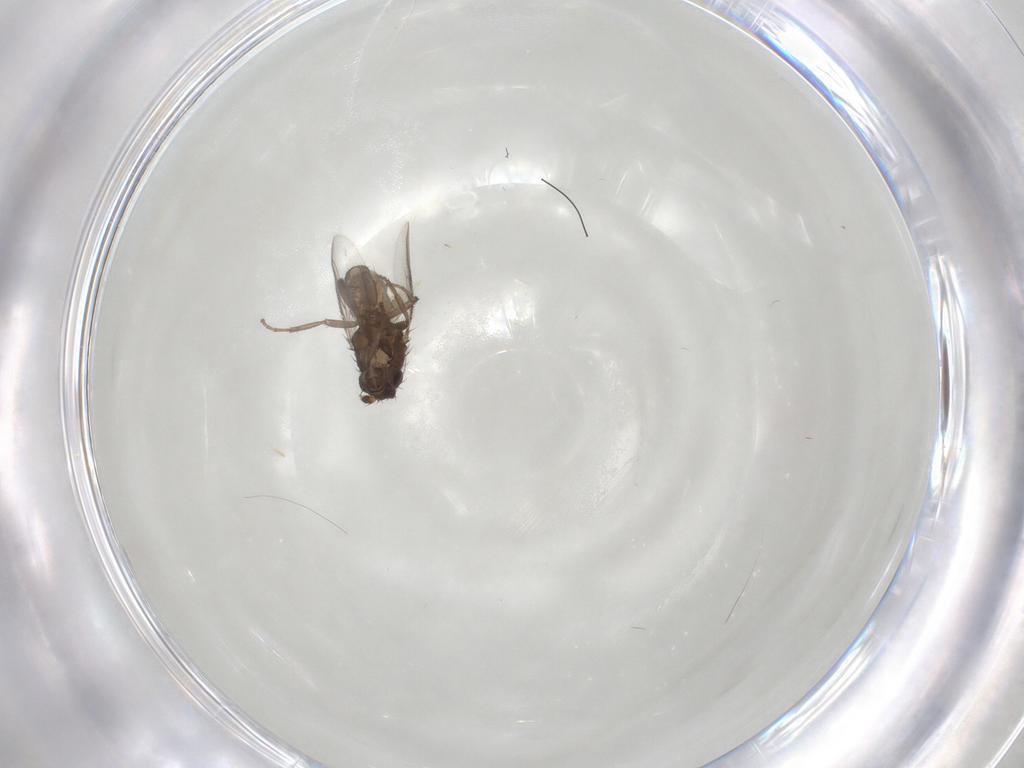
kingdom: Animalia
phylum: Arthropoda
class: Insecta
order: Diptera
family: Sphaeroceridae
